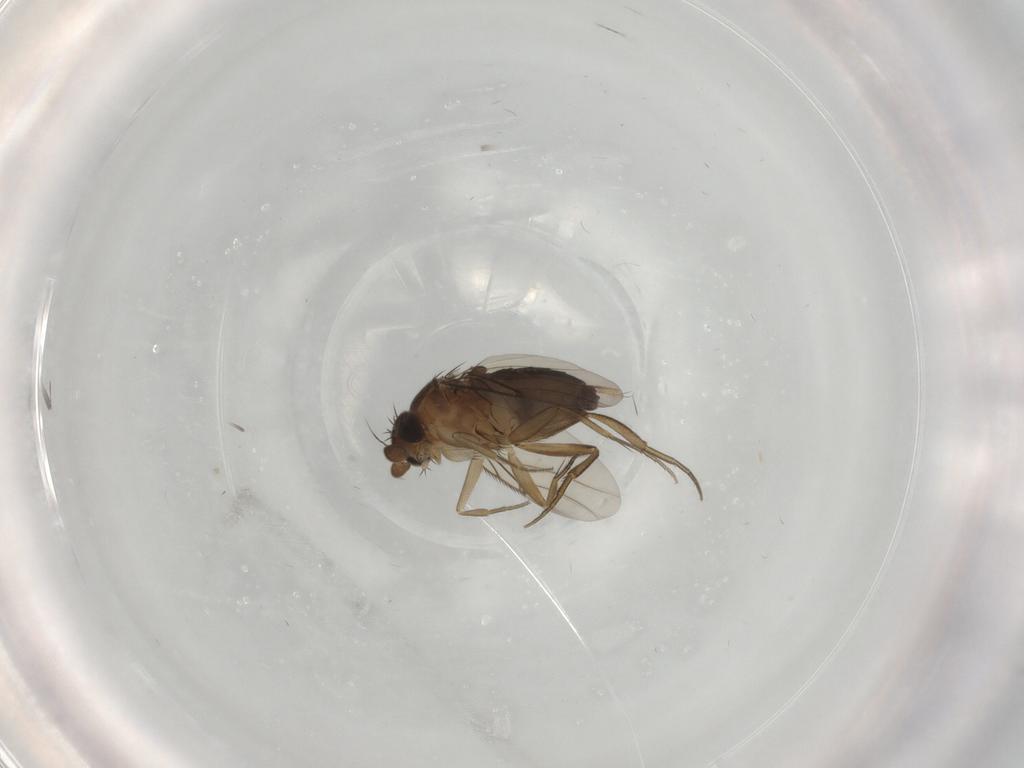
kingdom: Animalia
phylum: Arthropoda
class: Insecta
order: Diptera
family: Phoridae
